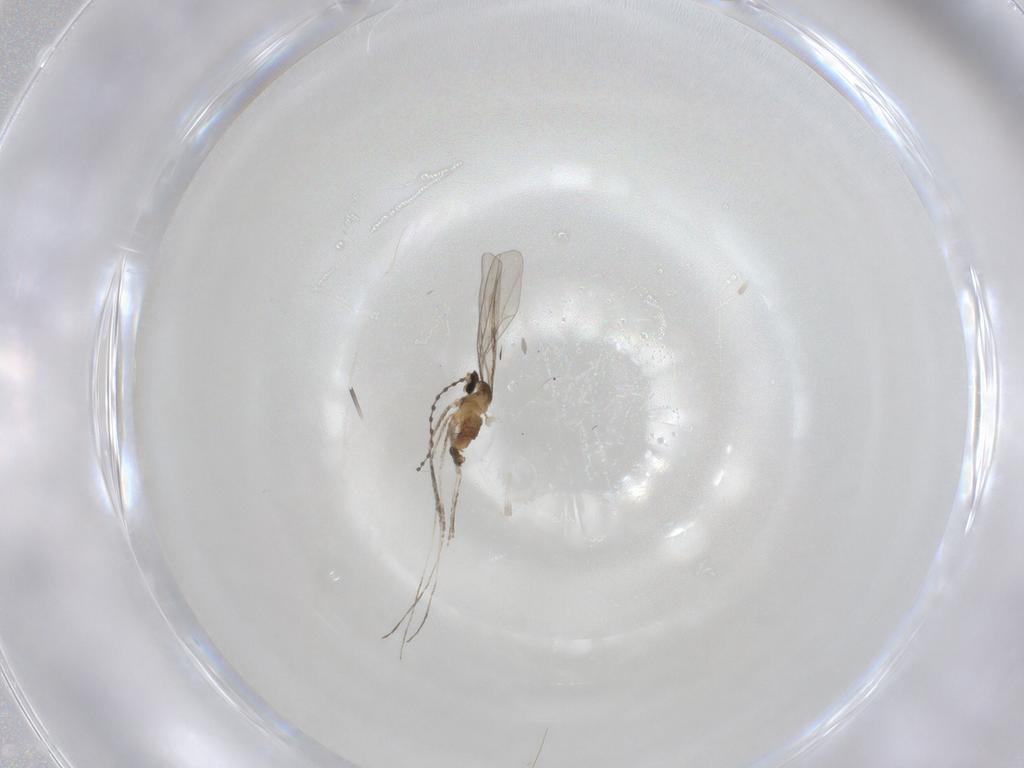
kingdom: Animalia
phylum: Arthropoda
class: Insecta
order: Diptera
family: Cecidomyiidae
